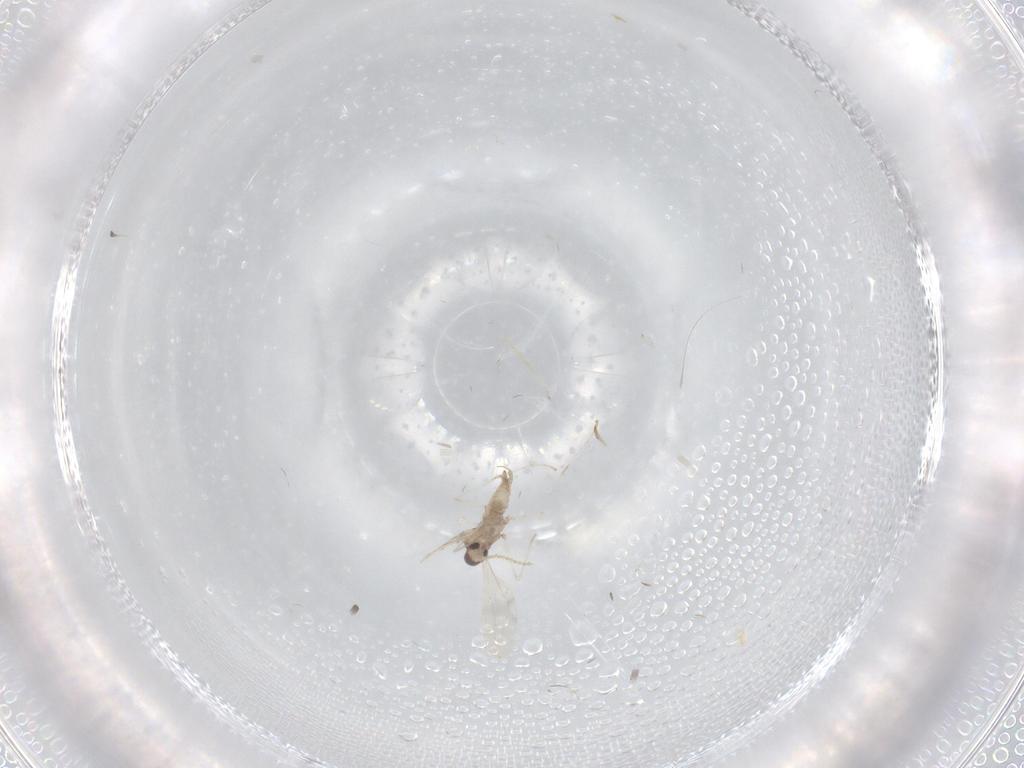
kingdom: Animalia
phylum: Arthropoda
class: Insecta
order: Diptera
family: Cecidomyiidae
